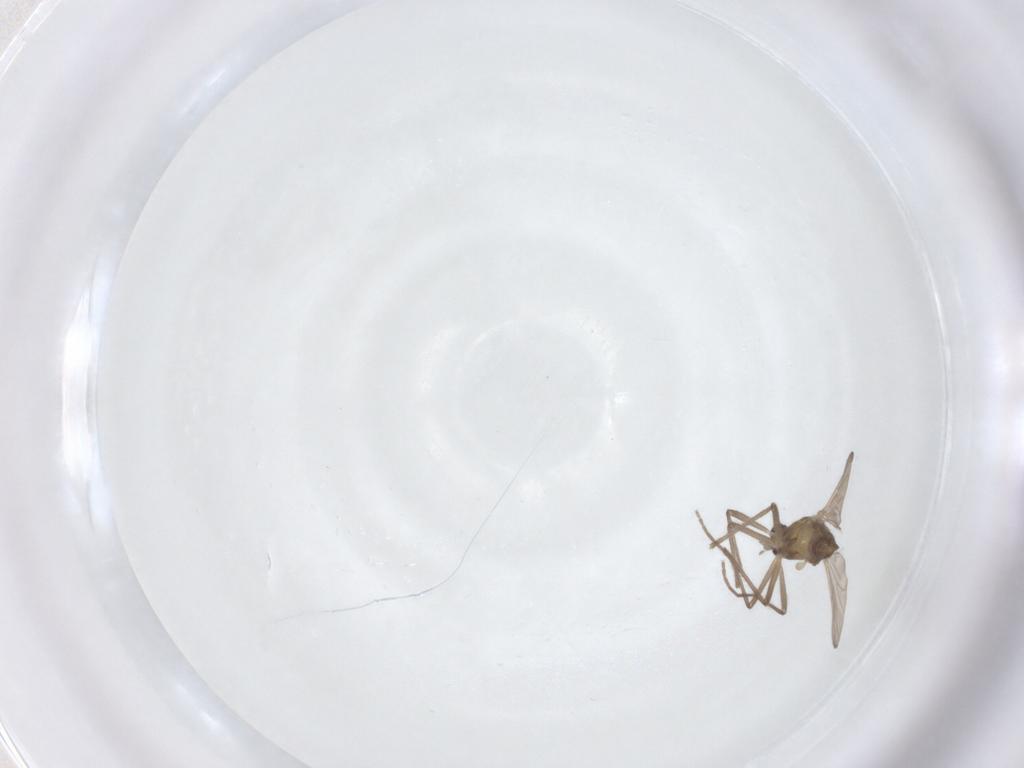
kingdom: Animalia
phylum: Arthropoda
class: Insecta
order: Diptera
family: Chironomidae
